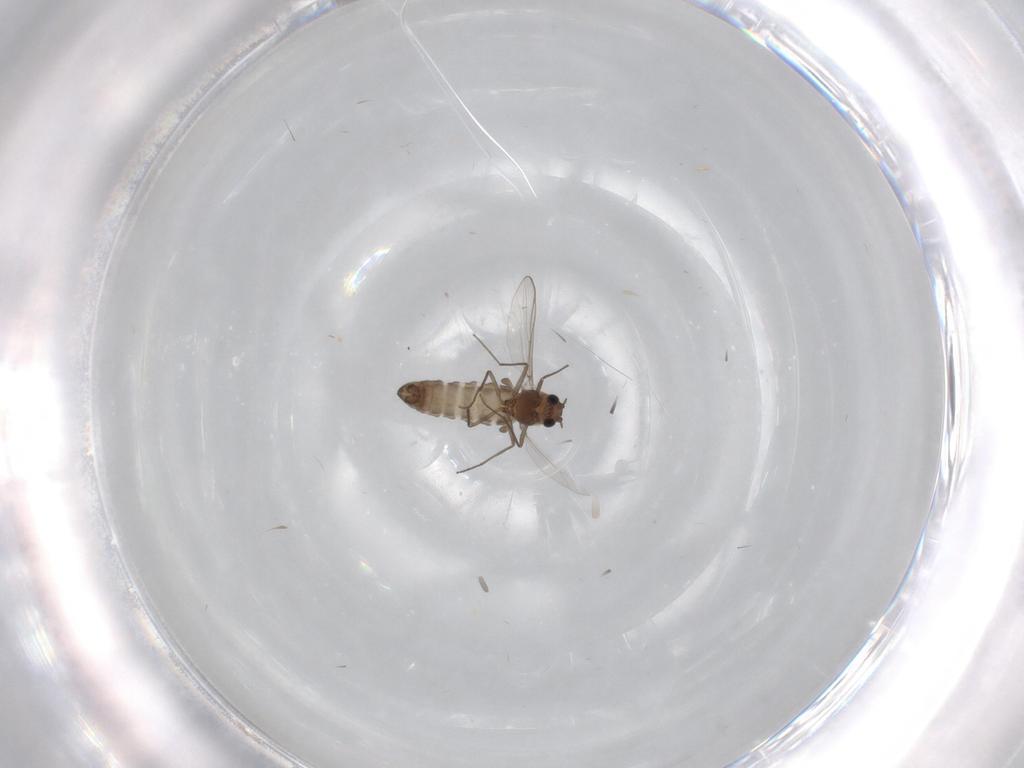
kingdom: Animalia
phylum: Arthropoda
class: Insecta
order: Diptera
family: Chironomidae
